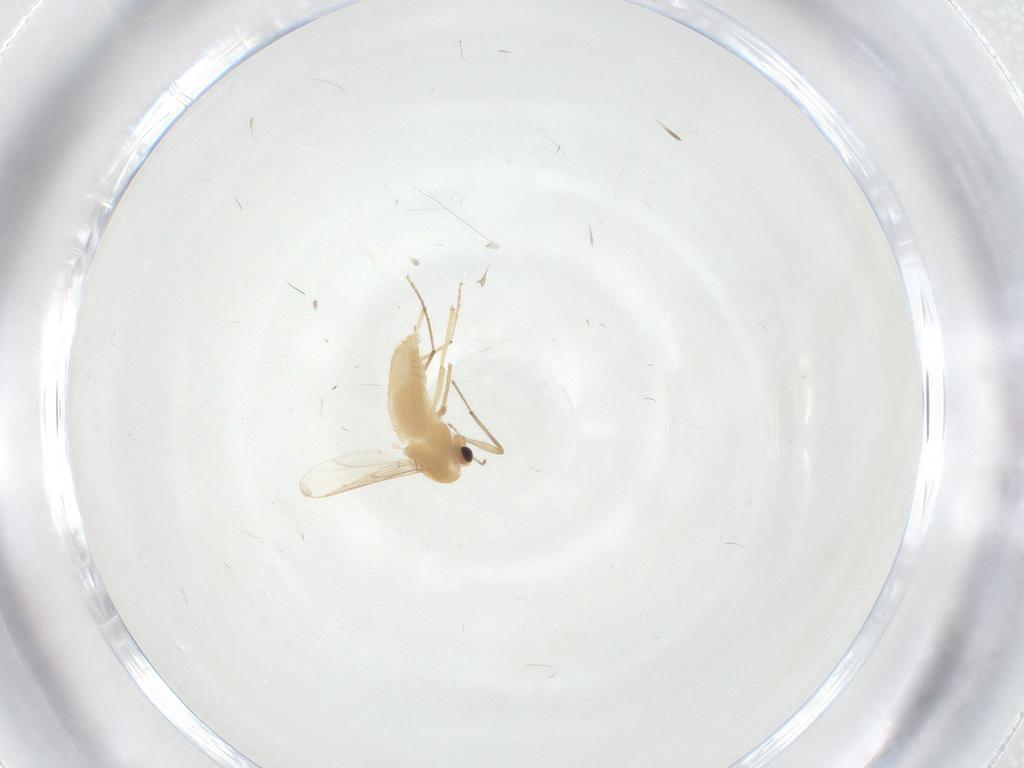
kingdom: Animalia
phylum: Arthropoda
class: Insecta
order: Diptera
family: Chironomidae
